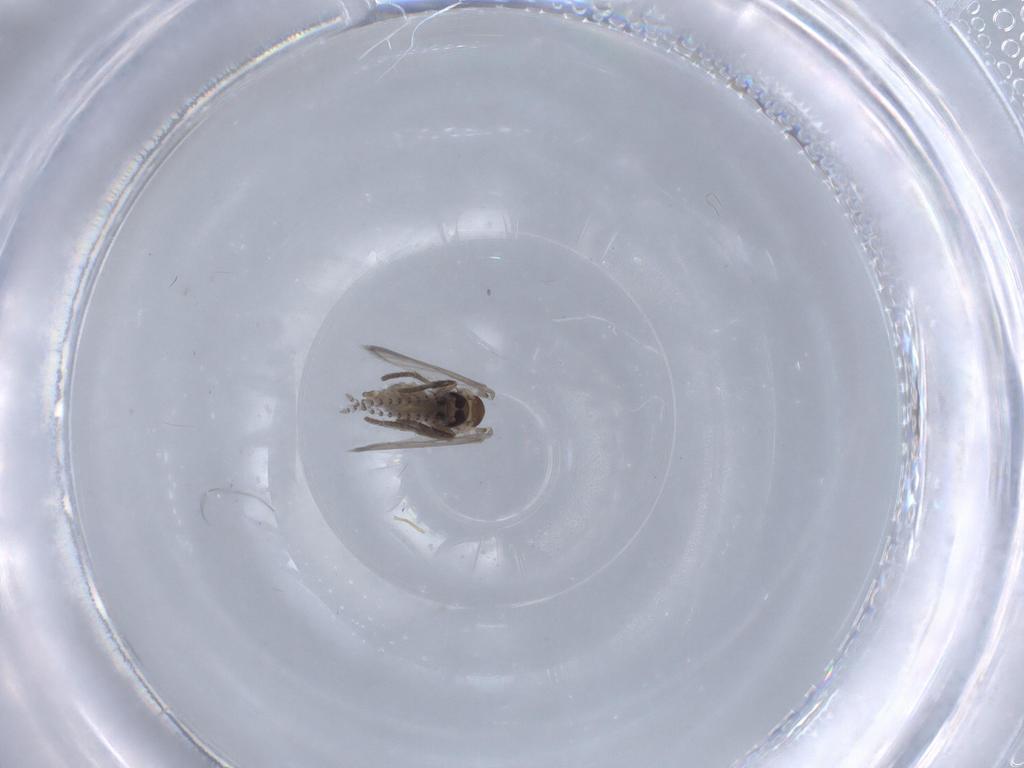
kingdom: Animalia
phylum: Arthropoda
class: Insecta
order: Diptera
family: Psychodidae
